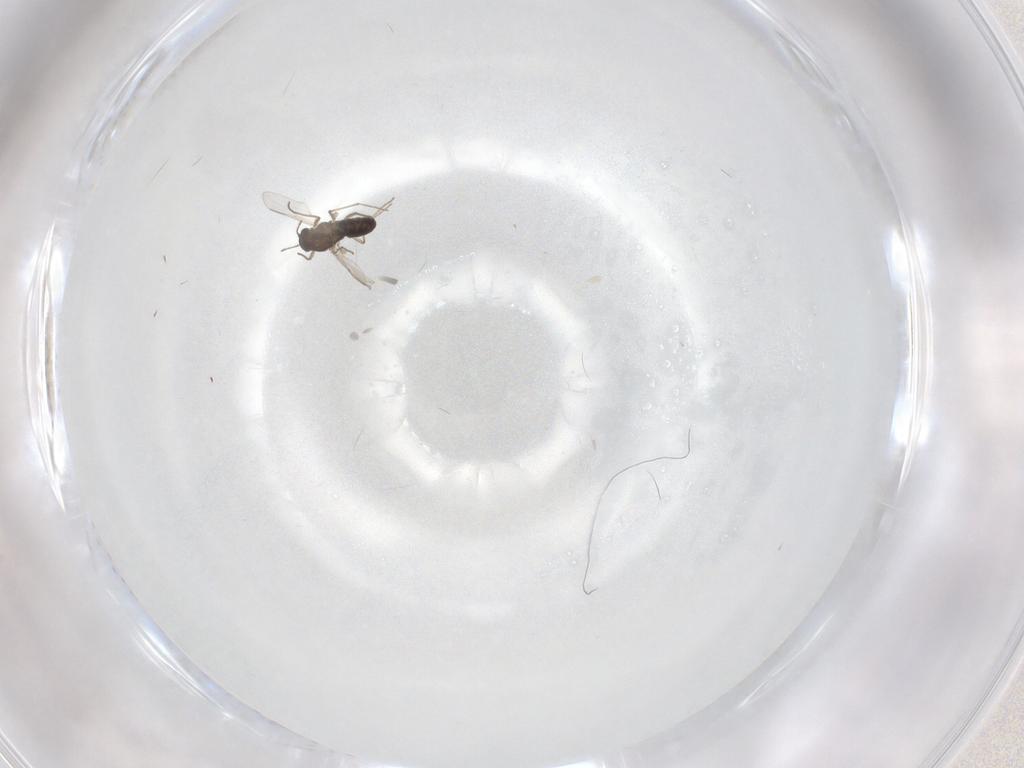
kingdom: Animalia
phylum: Arthropoda
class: Insecta
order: Diptera
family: Chironomidae
